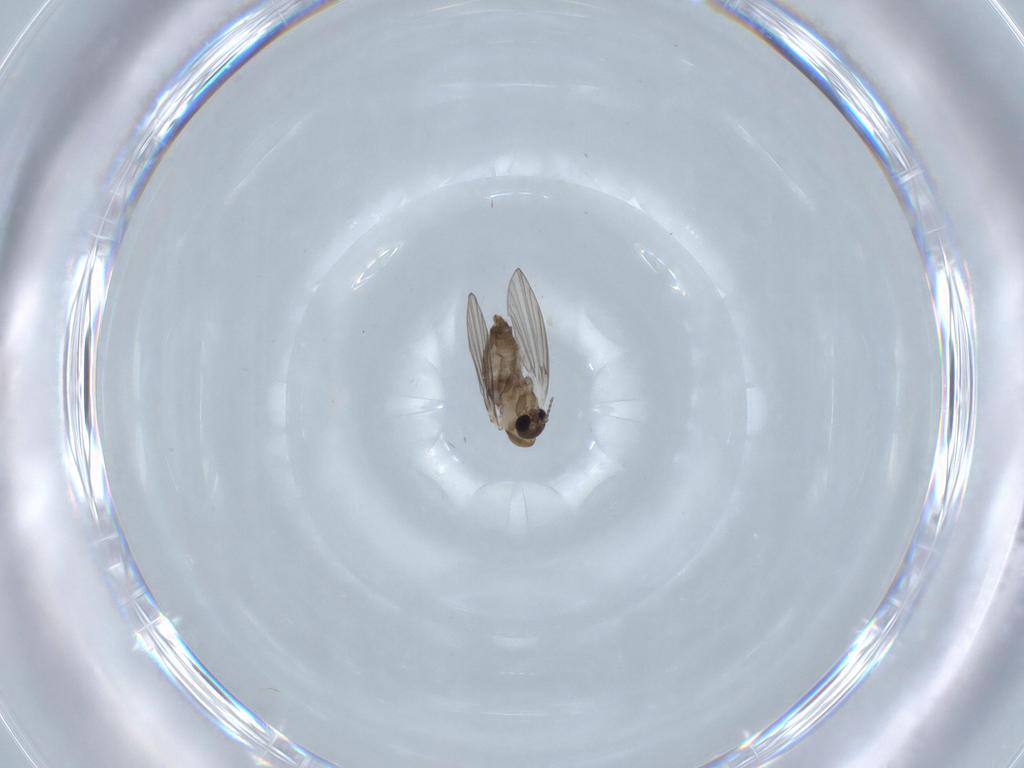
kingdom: Animalia
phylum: Arthropoda
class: Insecta
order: Diptera
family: Psychodidae
